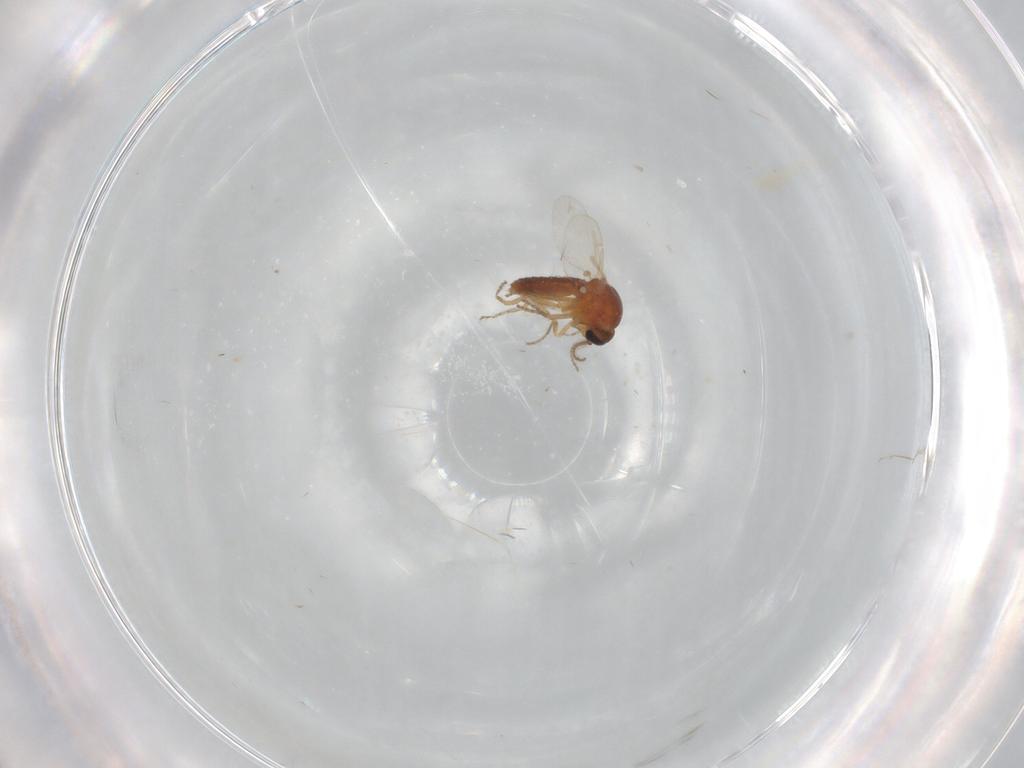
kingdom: Animalia
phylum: Arthropoda
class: Insecta
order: Diptera
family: Ceratopogonidae
